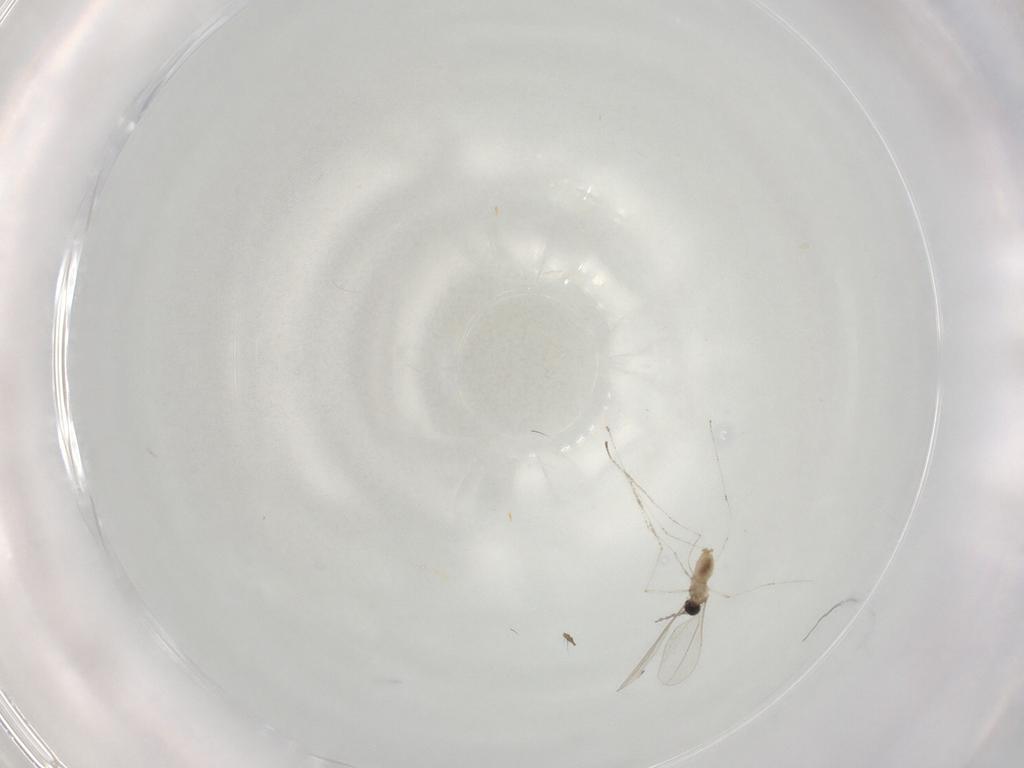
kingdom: Animalia
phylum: Arthropoda
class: Insecta
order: Diptera
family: Cecidomyiidae
